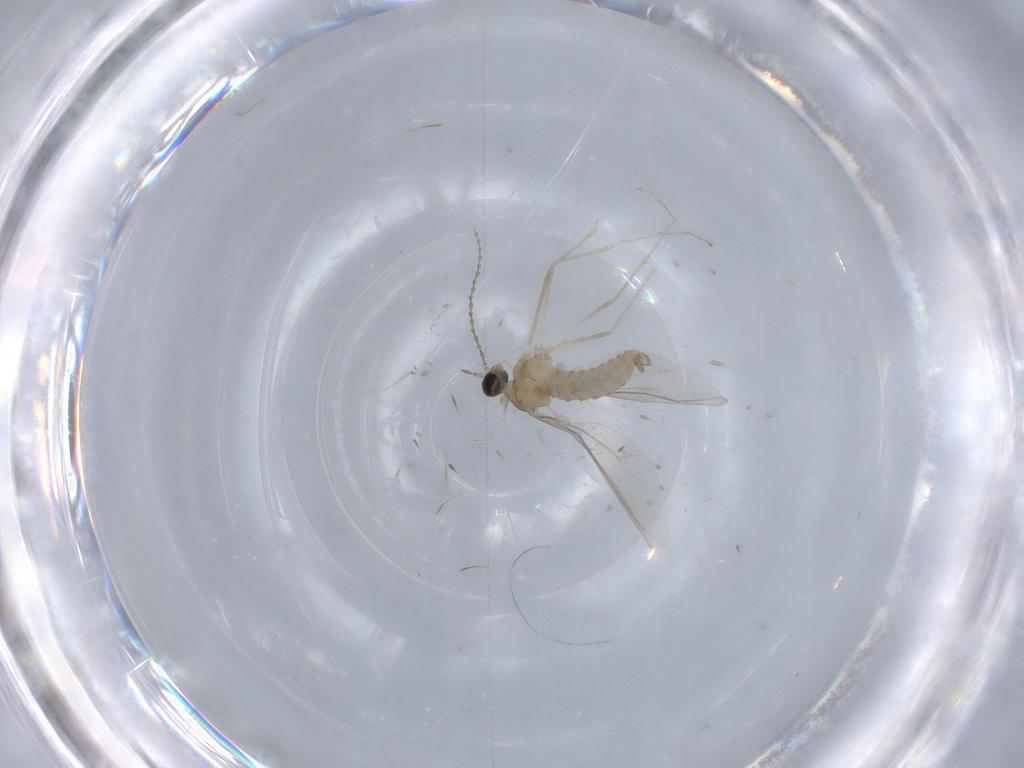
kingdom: Animalia
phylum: Arthropoda
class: Insecta
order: Diptera
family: Cecidomyiidae
